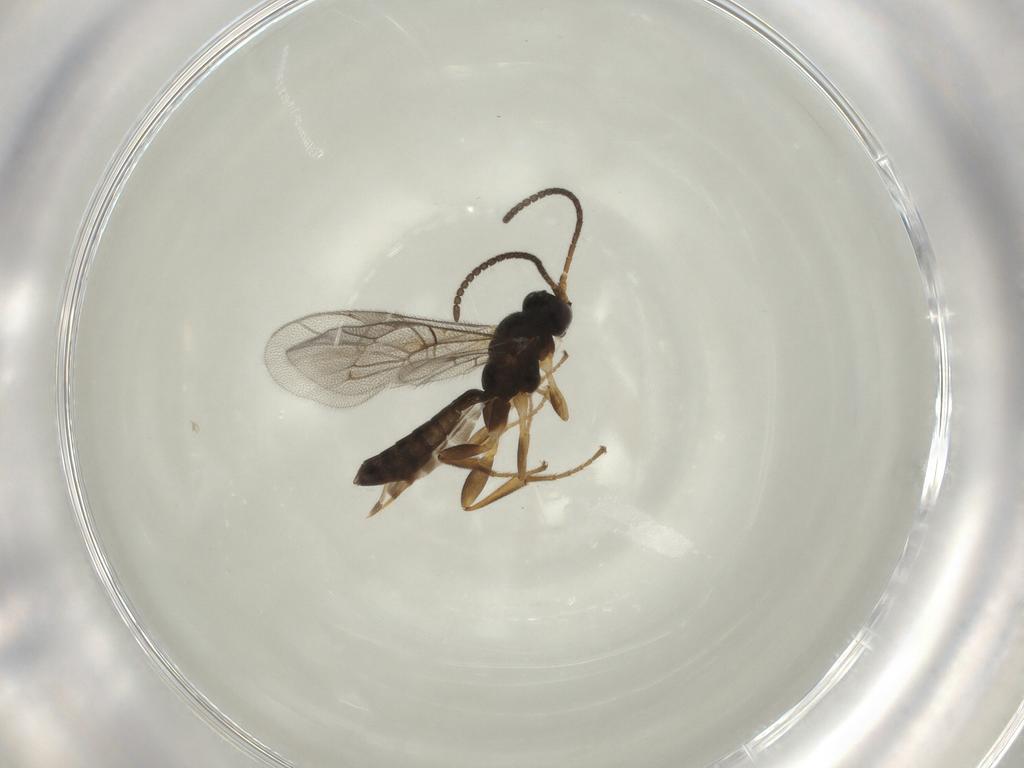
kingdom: Animalia
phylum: Arthropoda
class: Insecta
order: Hymenoptera
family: Ichneumonidae
